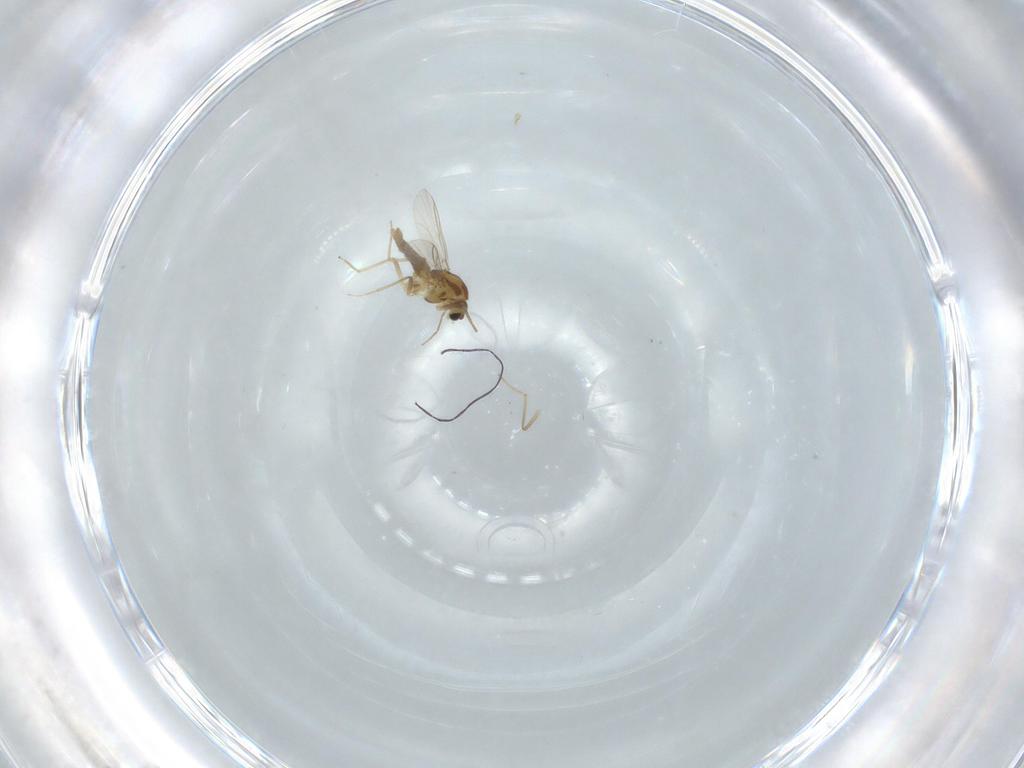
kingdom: Animalia
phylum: Arthropoda
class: Insecta
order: Diptera
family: Chironomidae
